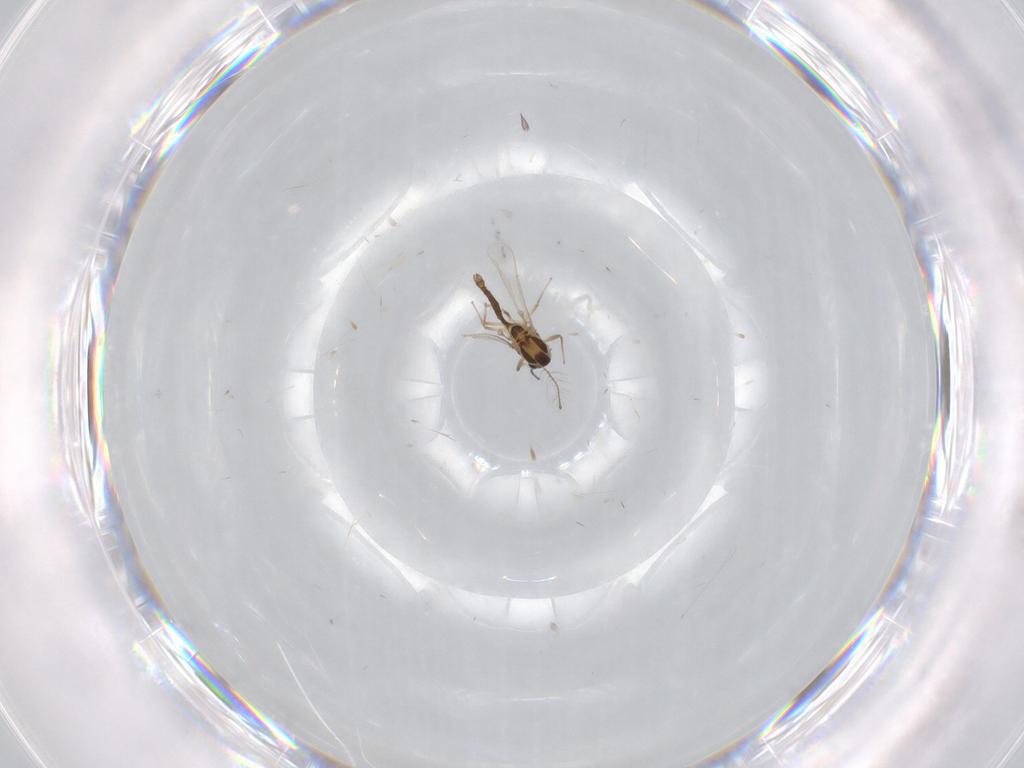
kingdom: Animalia
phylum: Arthropoda
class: Insecta
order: Diptera
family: Limoniidae
